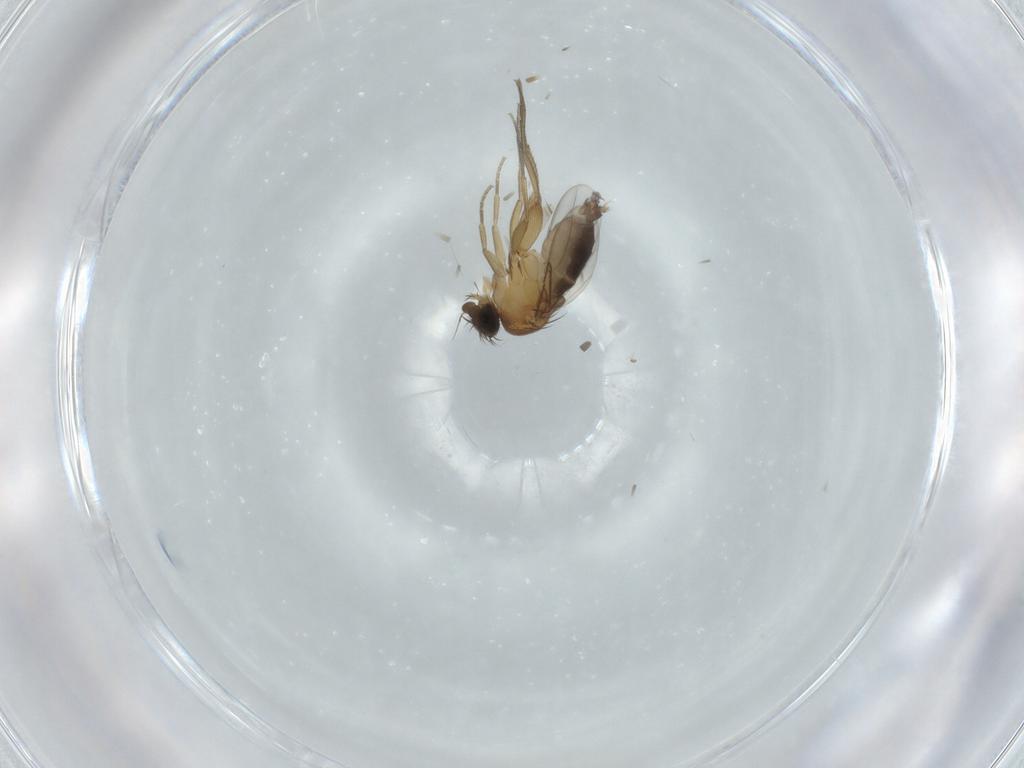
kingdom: Animalia
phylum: Arthropoda
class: Insecta
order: Diptera
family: Phoridae
